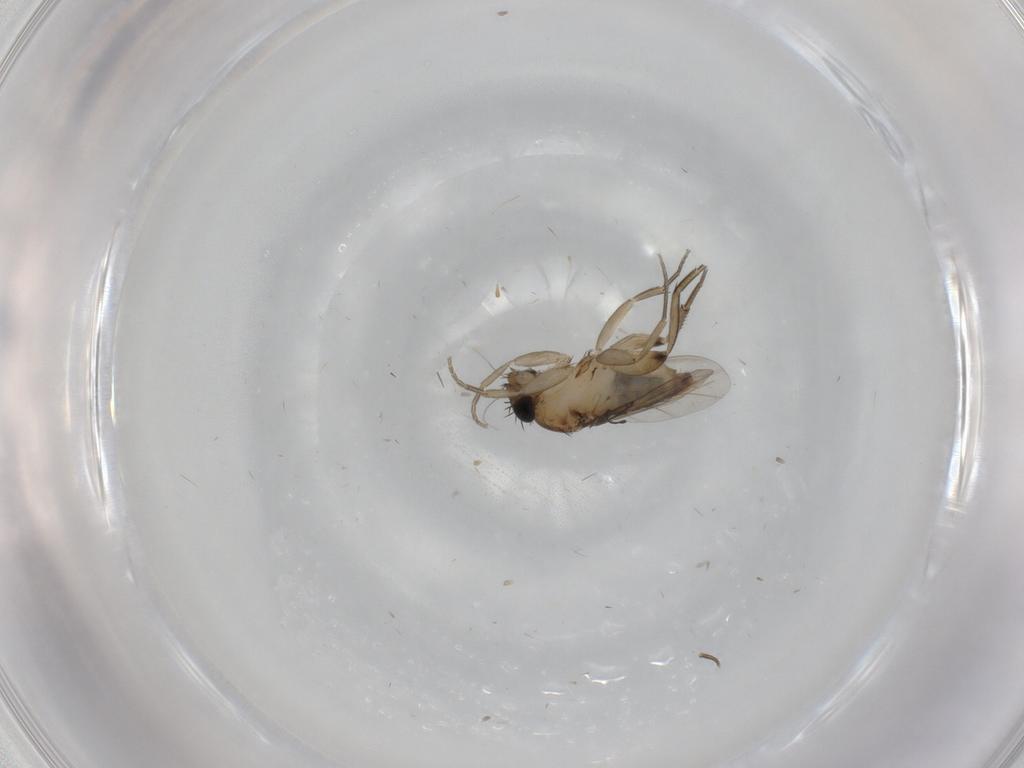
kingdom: Animalia
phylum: Arthropoda
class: Insecta
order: Diptera
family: Phoridae
